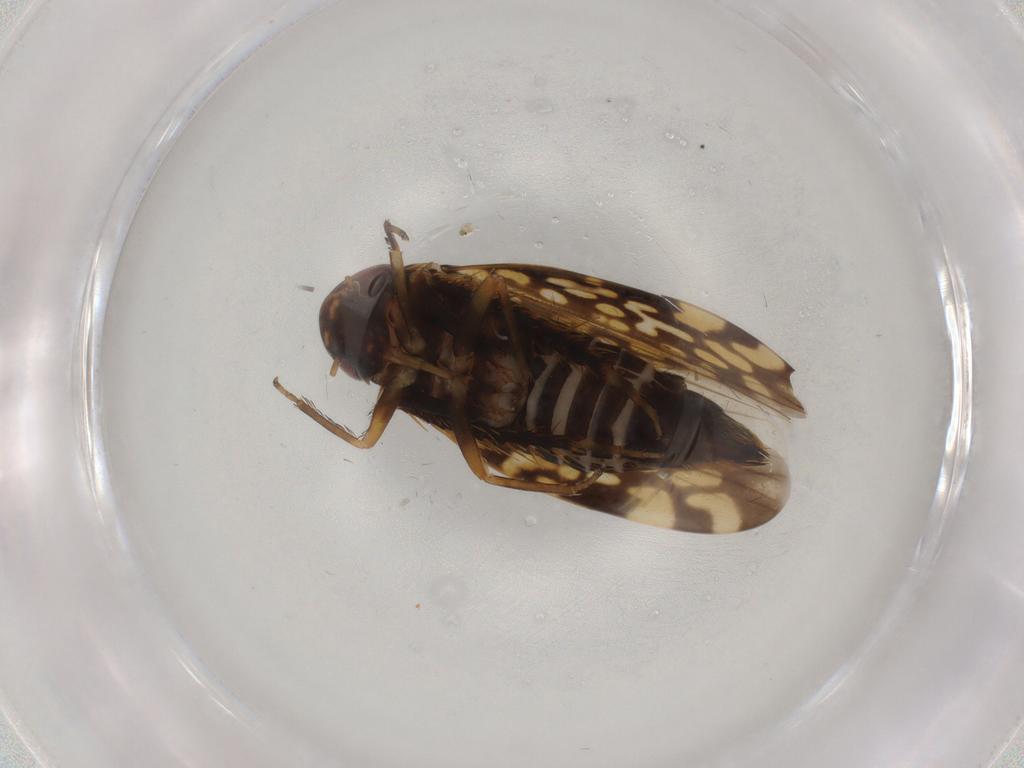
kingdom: Animalia
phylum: Arthropoda
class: Insecta
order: Hemiptera
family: Cicadellidae
